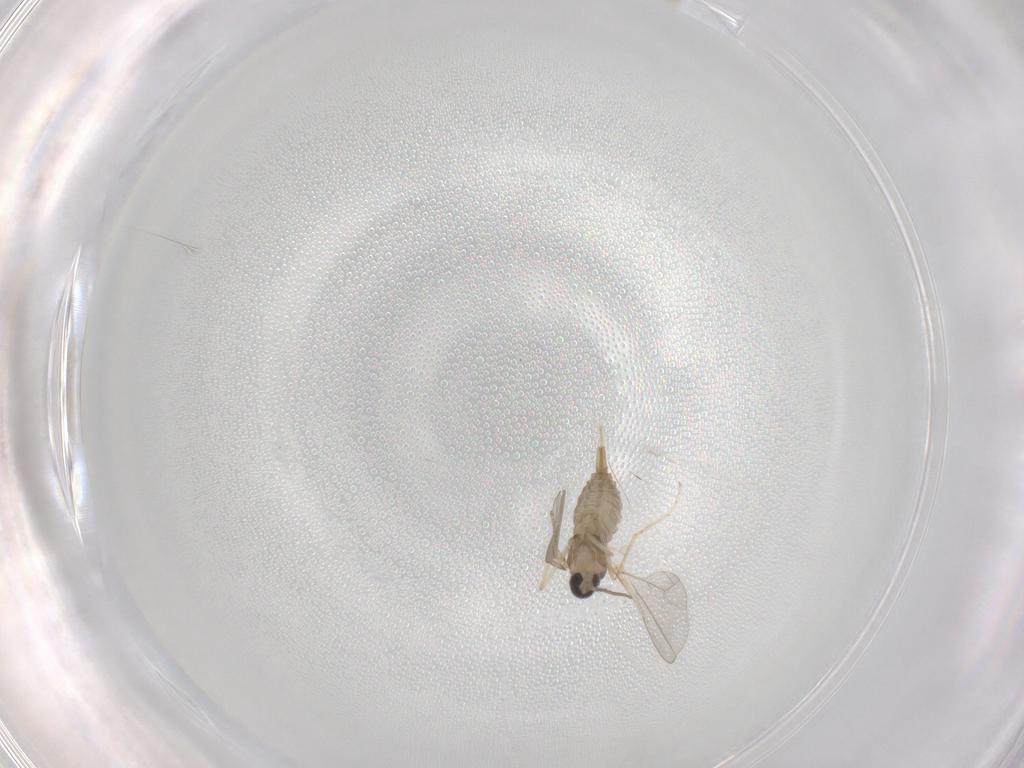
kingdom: Animalia
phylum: Arthropoda
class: Insecta
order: Diptera
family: Cecidomyiidae
